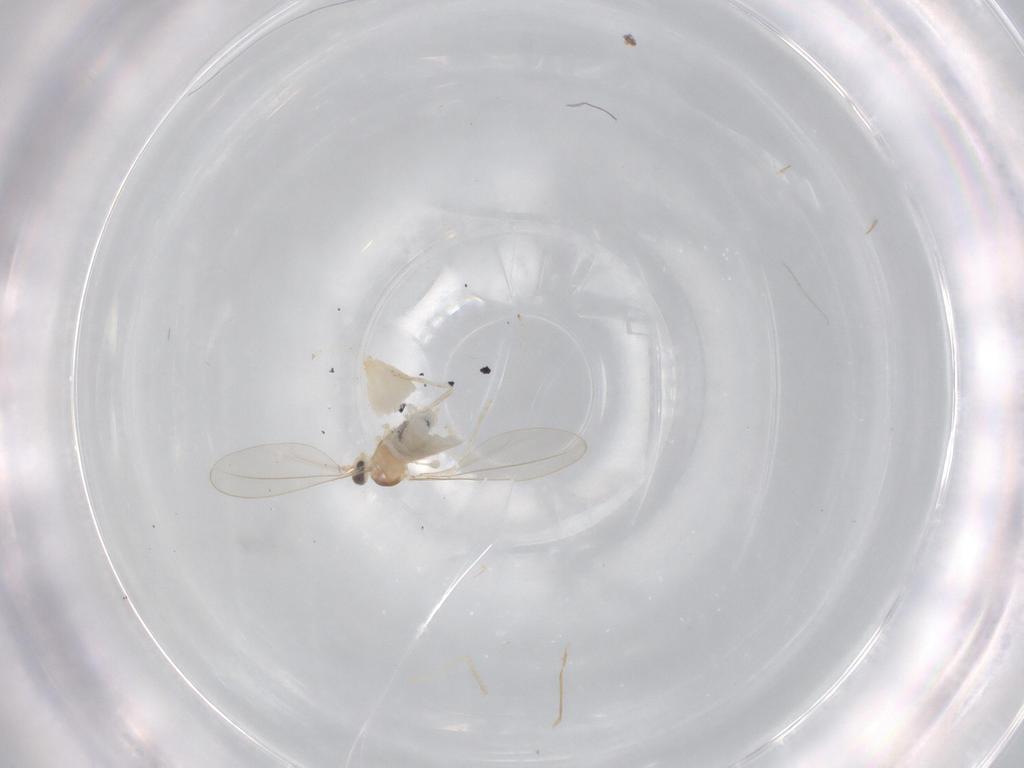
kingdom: Animalia
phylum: Arthropoda
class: Insecta
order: Diptera
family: Cecidomyiidae
